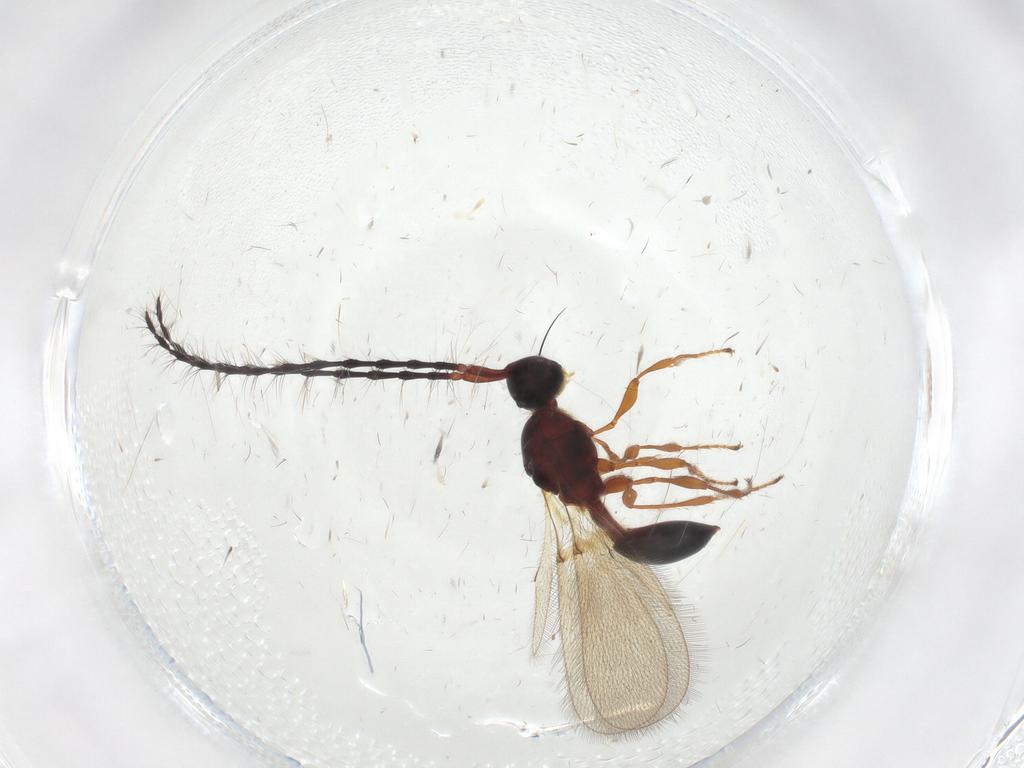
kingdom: Animalia
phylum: Arthropoda
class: Insecta
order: Hymenoptera
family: Diapriidae
